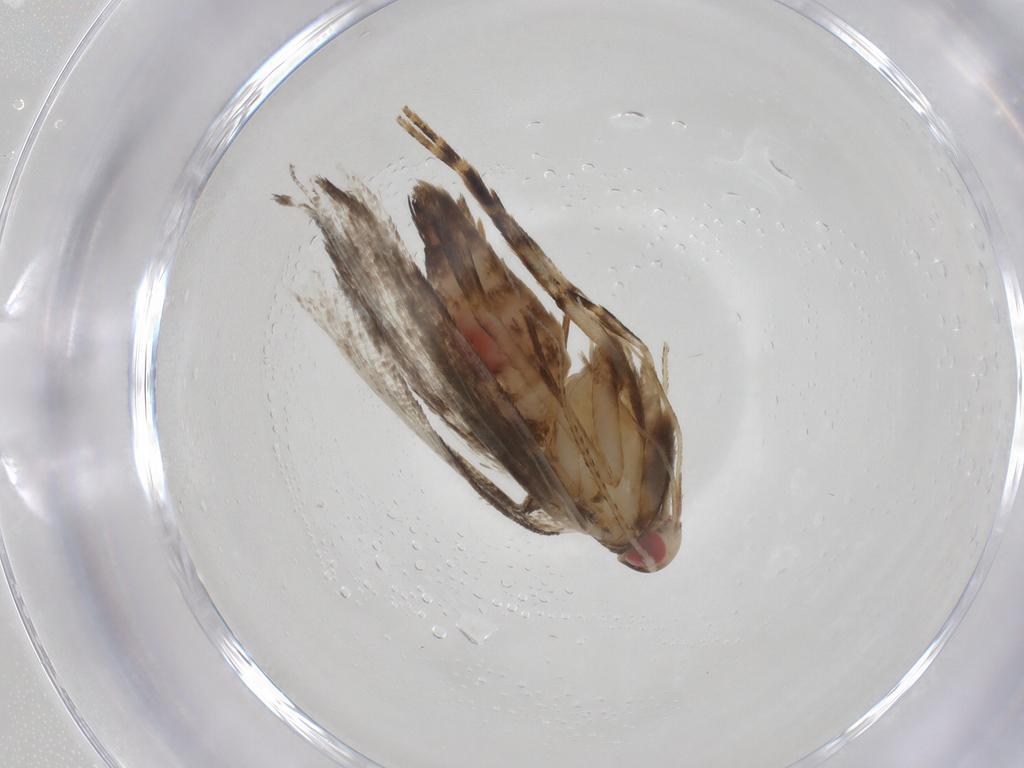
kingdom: Animalia
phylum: Arthropoda
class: Insecta
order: Lepidoptera
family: Gelechiidae
